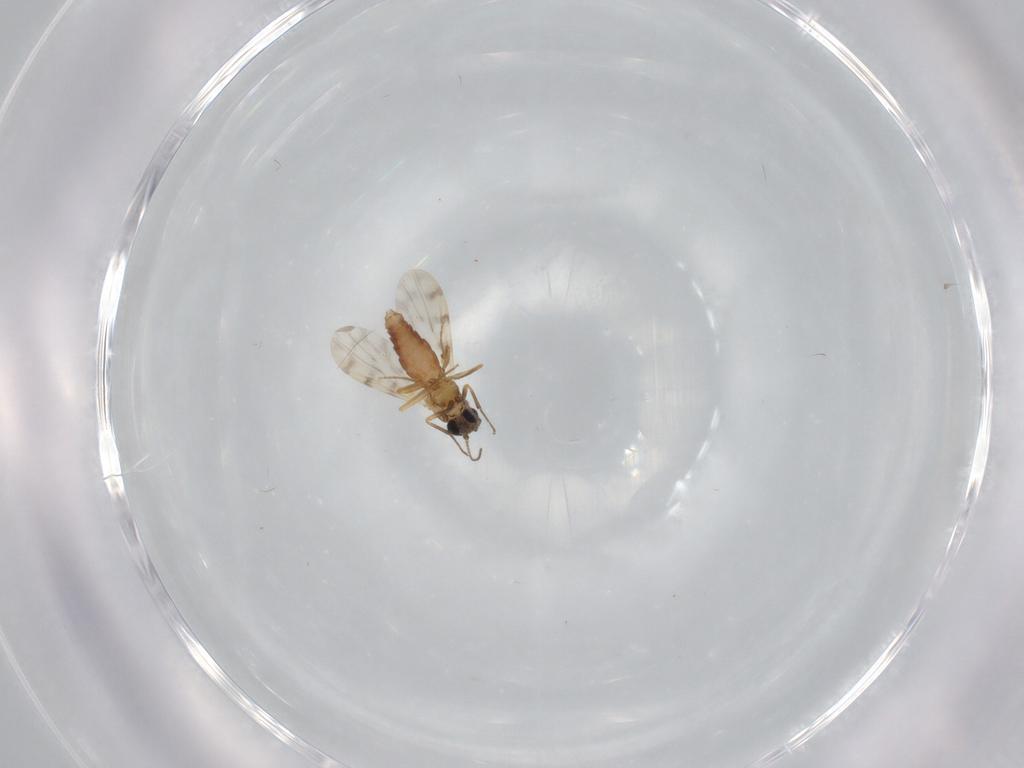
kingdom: Animalia
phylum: Arthropoda
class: Insecta
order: Diptera
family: Ceratopogonidae
